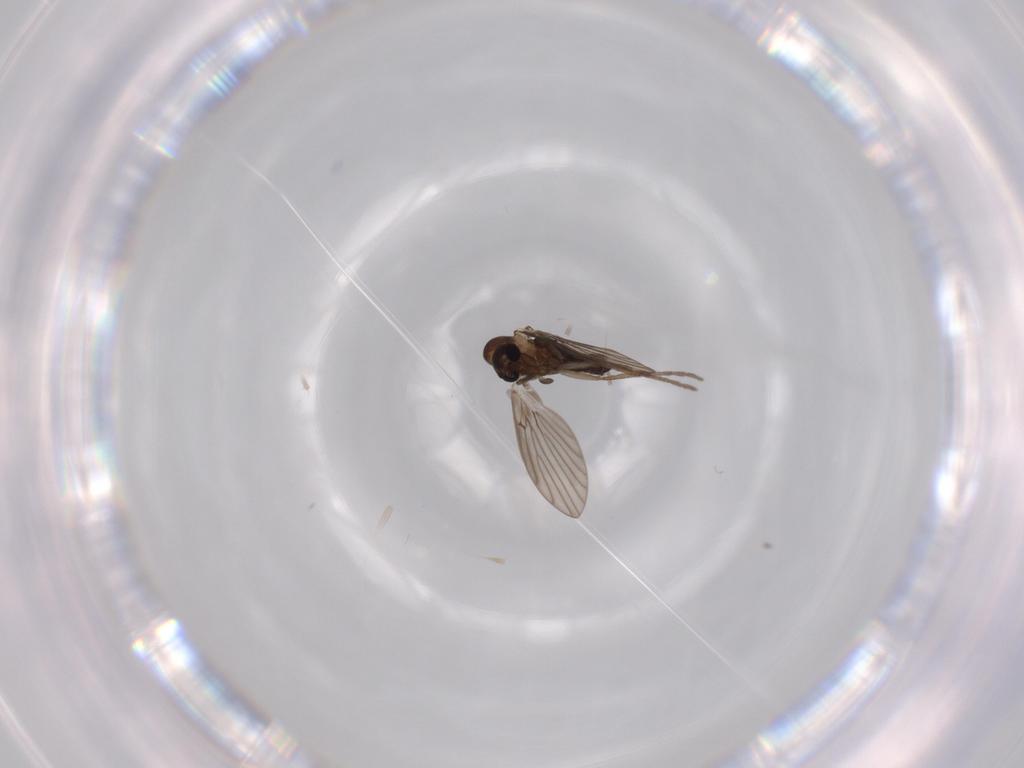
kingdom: Animalia
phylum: Arthropoda
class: Insecta
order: Diptera
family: Psychodidae
